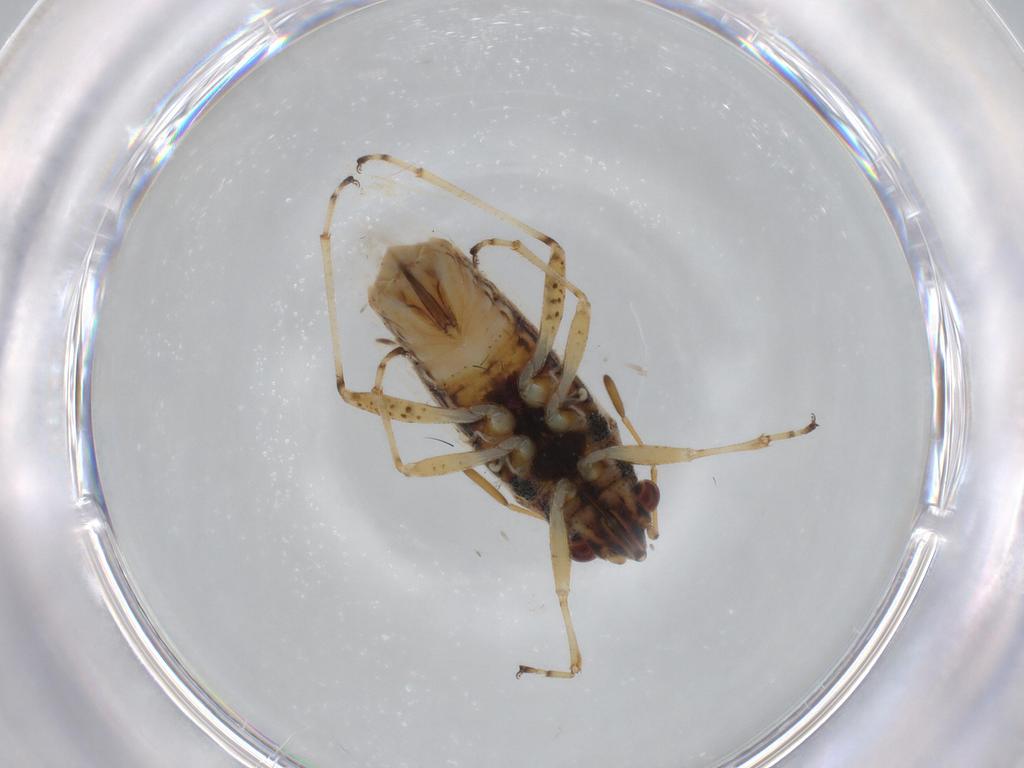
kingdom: Animalia
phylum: Arthropoda
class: Insecta
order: Hemiptera
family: Lygaeidae
